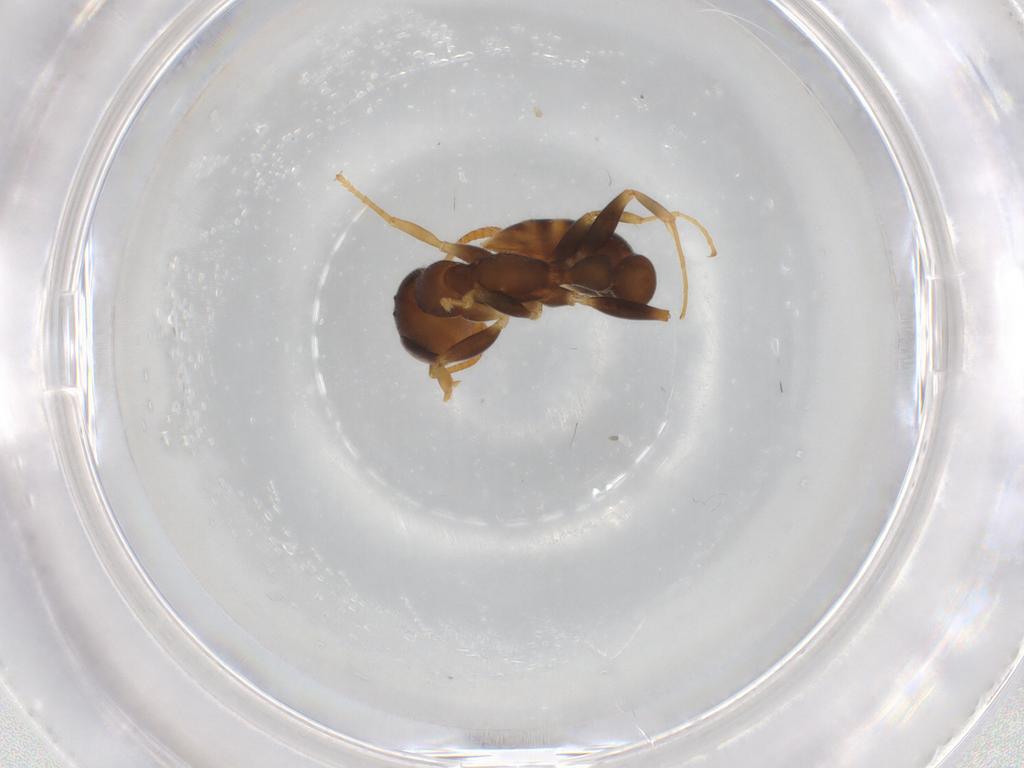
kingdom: Animalia
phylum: Arthropoda
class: Insecta
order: Hymenoptera
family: Formicidae
